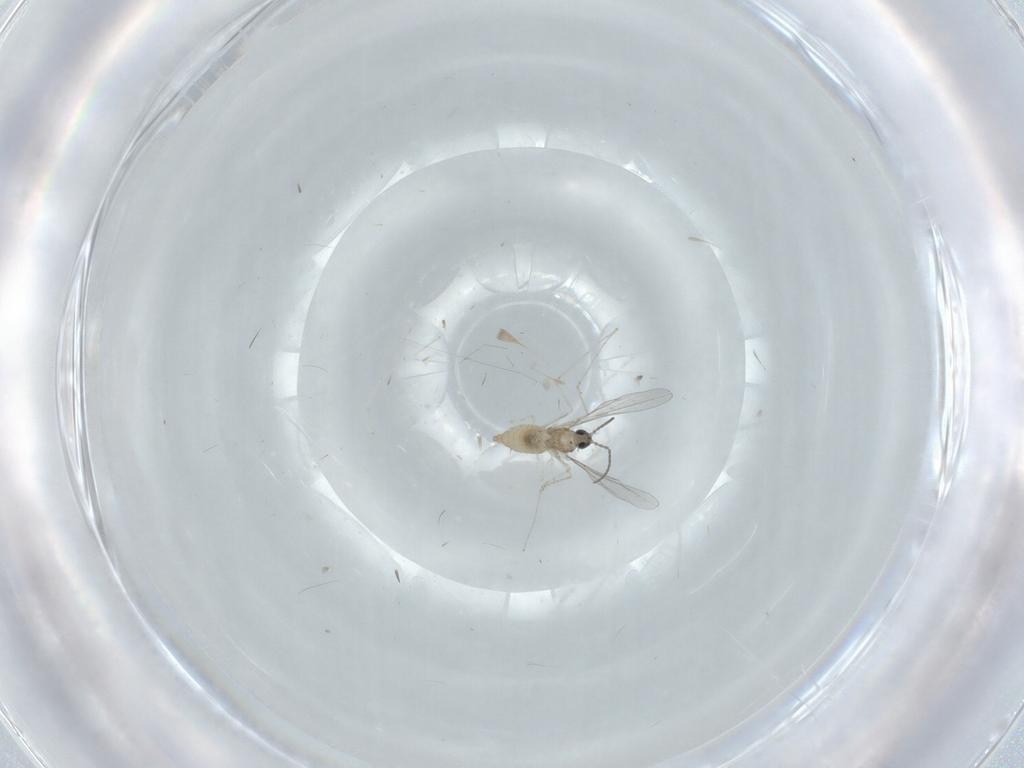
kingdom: Animalia
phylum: Arthropoda
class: Insecta
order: Diptera
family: Cecidomyiidae
